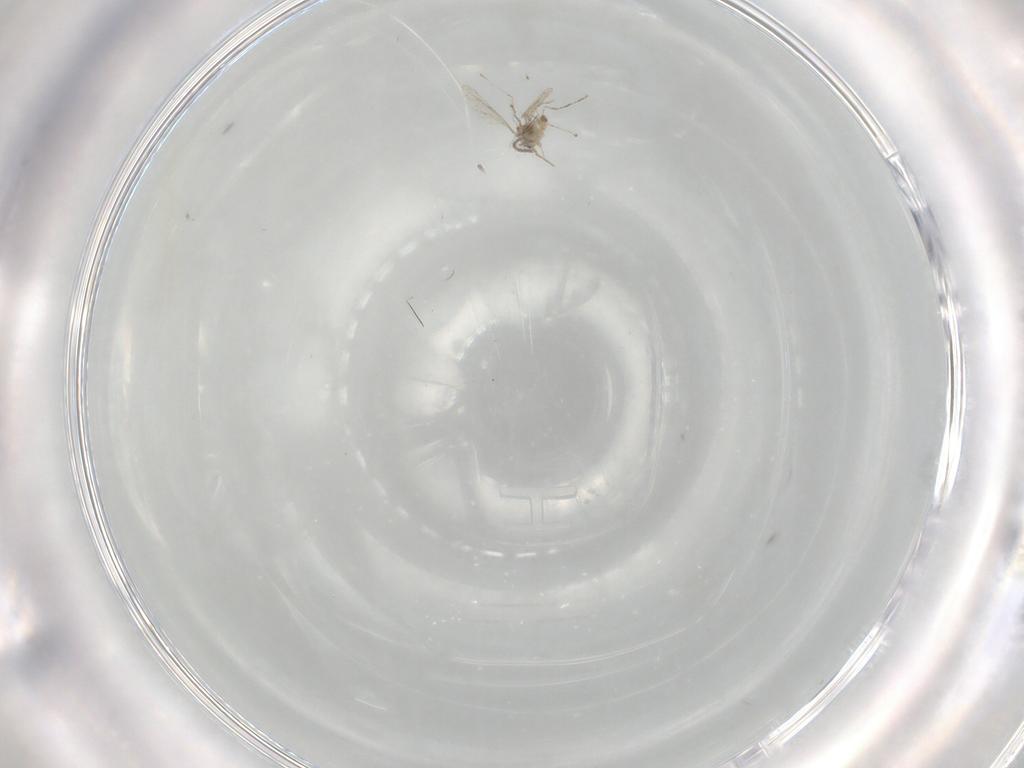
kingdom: Animalia
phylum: Arthropoda
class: Insecta
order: Diptera
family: Cecidomyiidae
